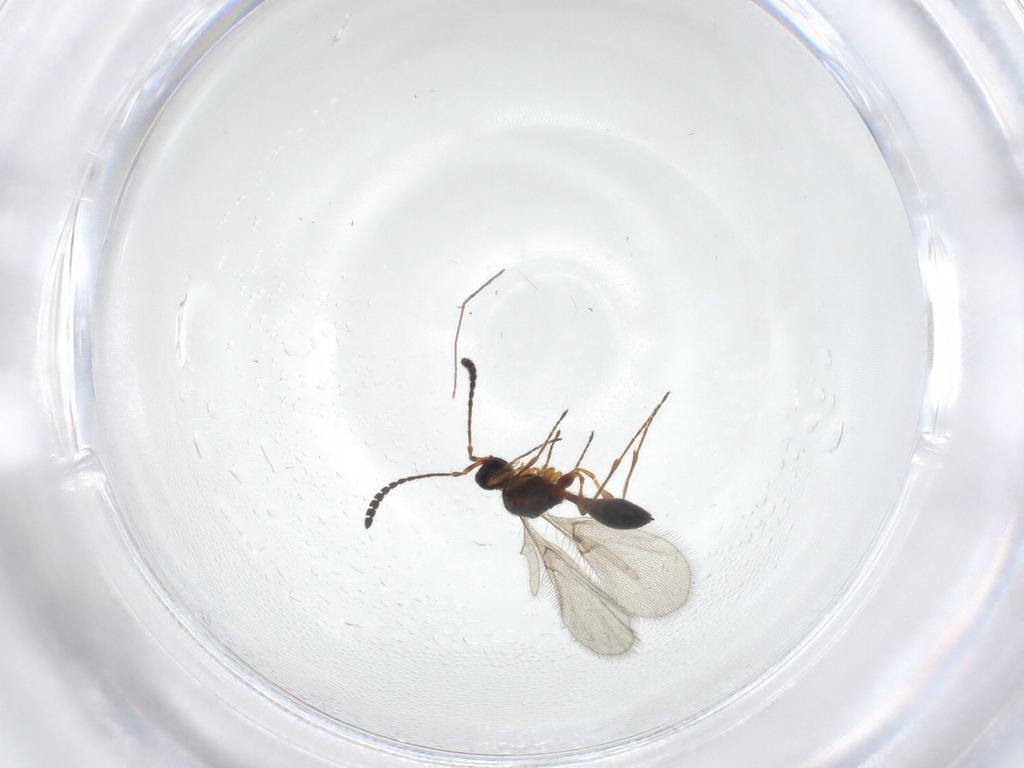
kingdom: Animalia
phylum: Arthropoda
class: Insecta
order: Hymenoptera
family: Diapriidae
